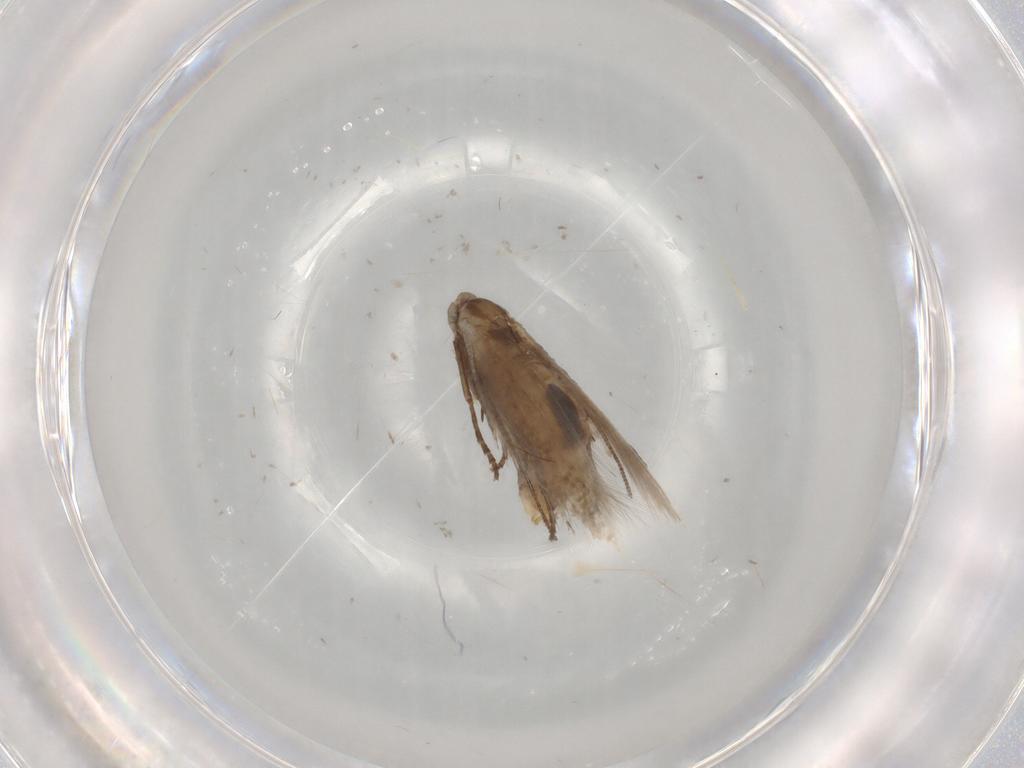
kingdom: Animalia
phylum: Arthropoda
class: Insecta
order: Lepidoptera
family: Bucculatricidae
